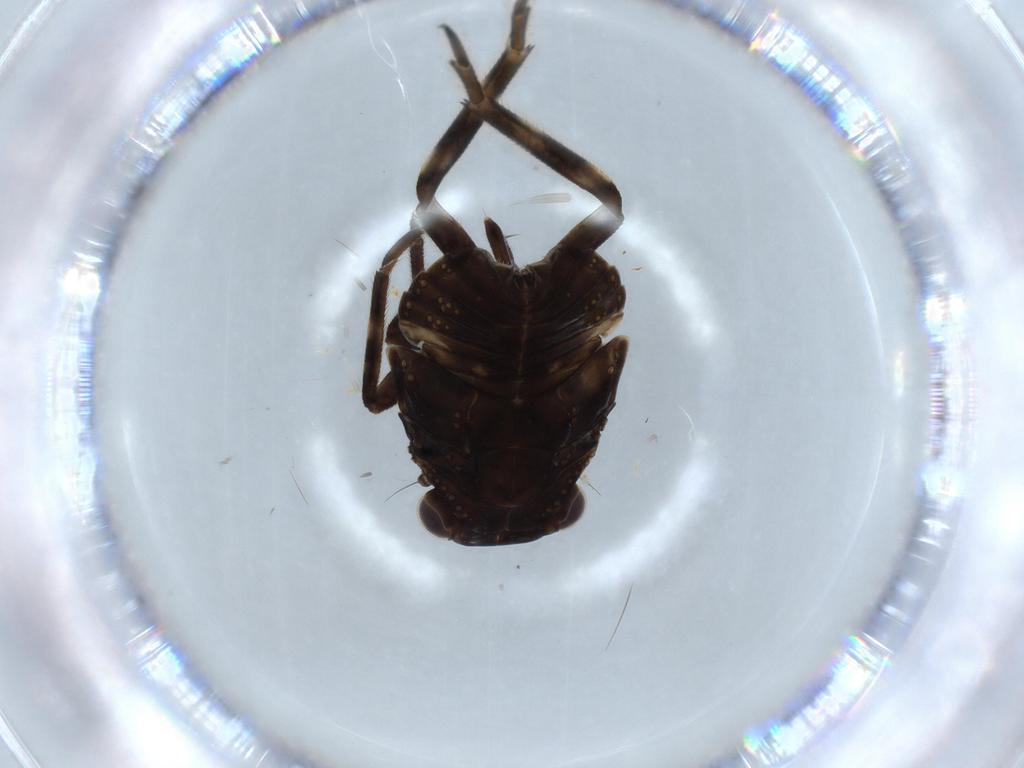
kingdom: Animalia
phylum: Arthropoda
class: Insecta
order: Hemiptera
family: Fulgoridae
